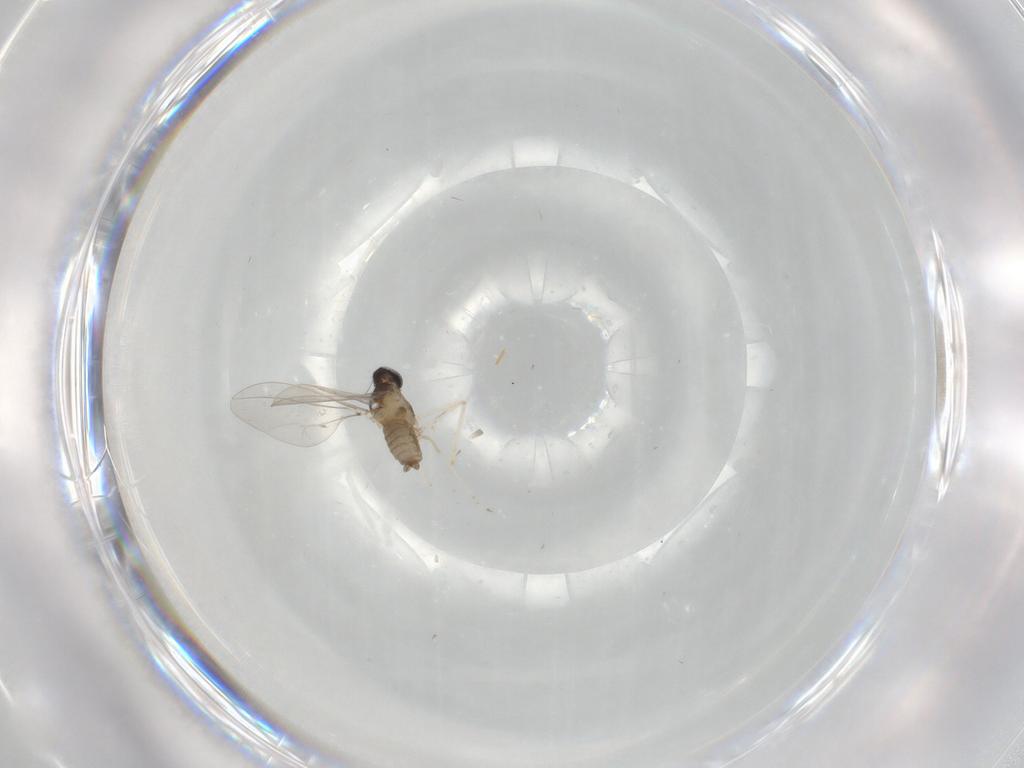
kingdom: Animalia
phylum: Arthropoda
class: Insecta
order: Diptera
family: Cecidomyiidae
